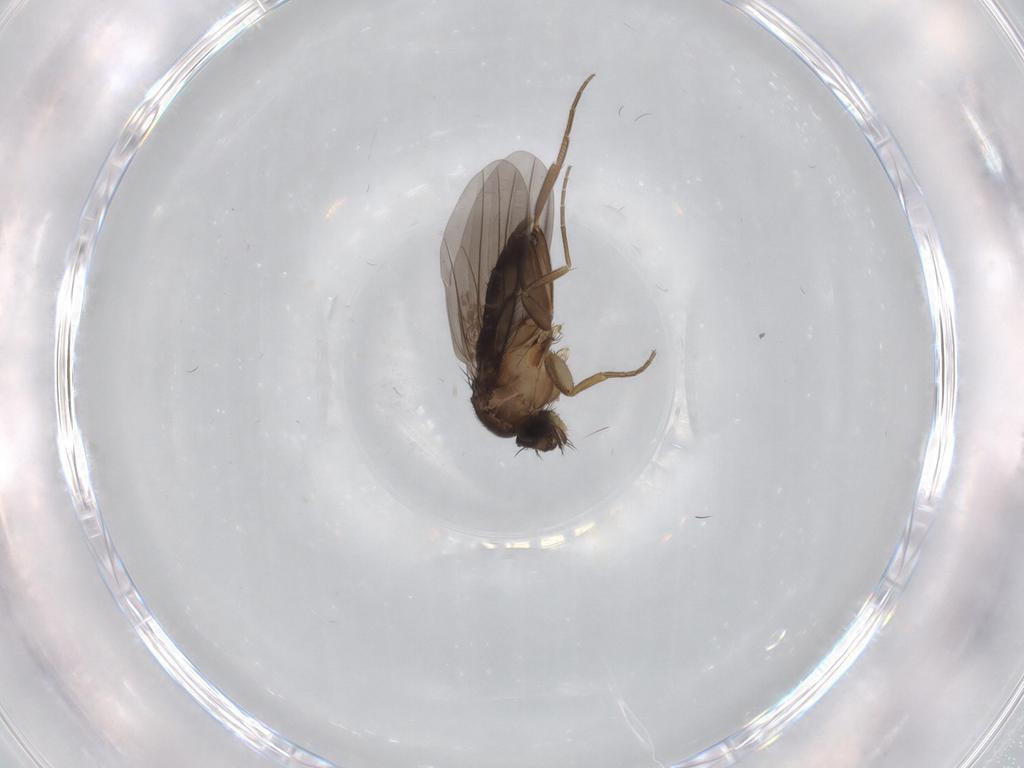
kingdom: Animalia
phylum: Arthropoda
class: Insecta
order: Diptera
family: Phoridae
